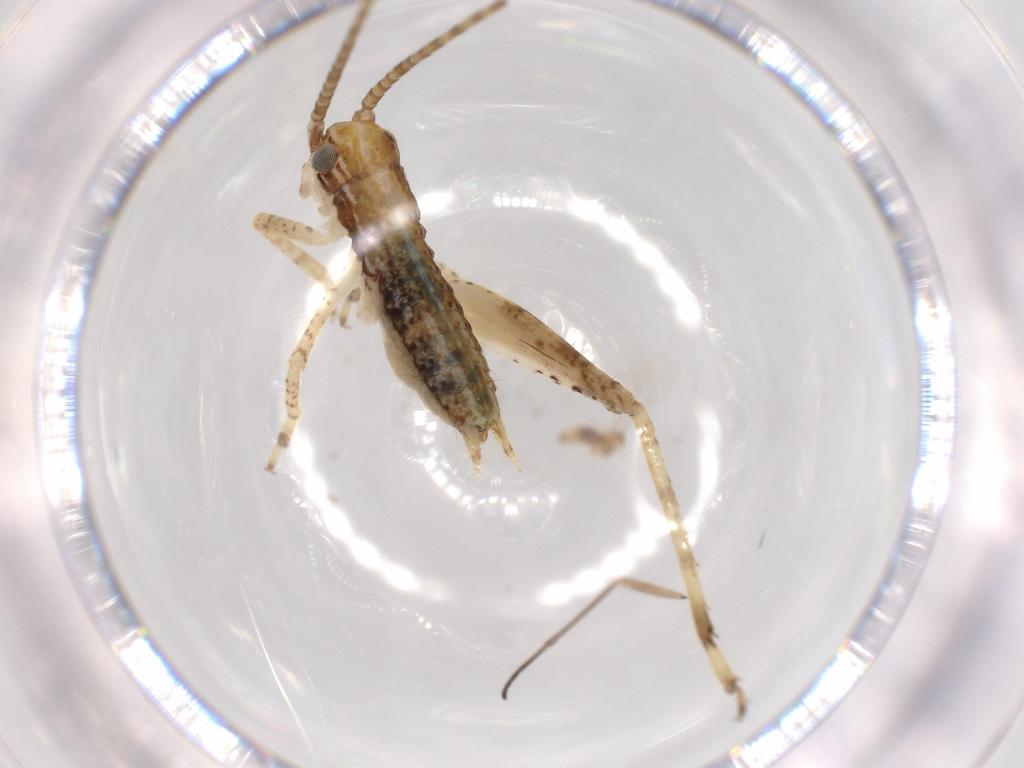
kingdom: Animalia
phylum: Arthropoda
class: Insecta
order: Orthoptera
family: Gryllidae
